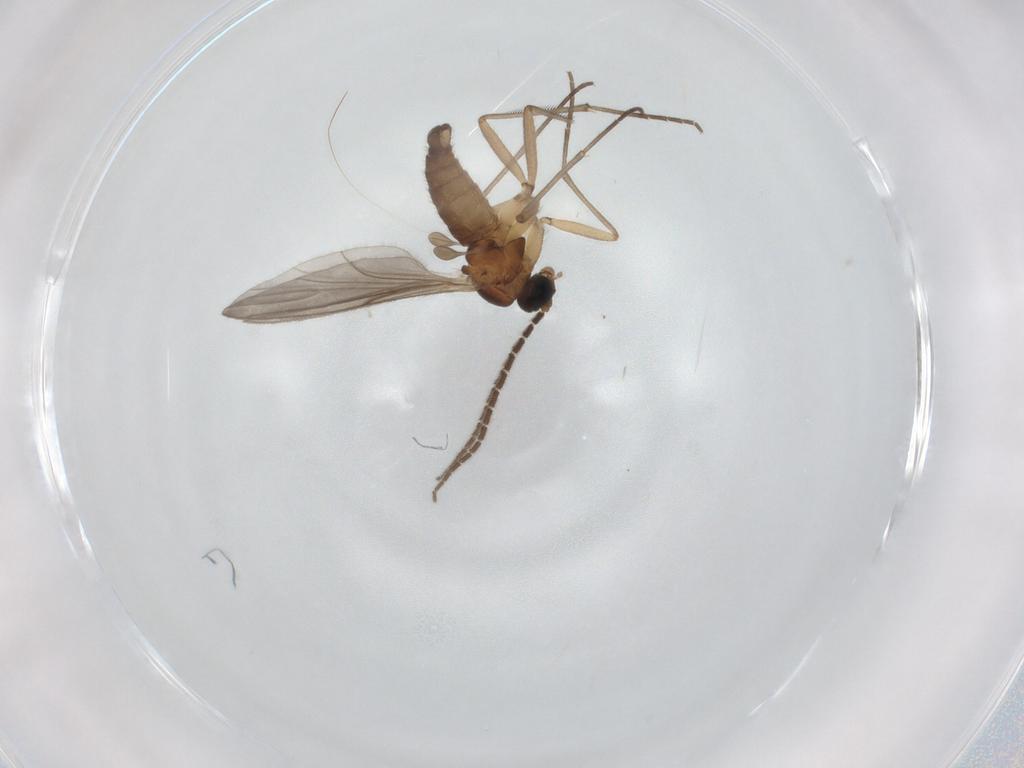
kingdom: Animalia
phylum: Arthropoda
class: Insecta
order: Diptera
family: Sciaridae
